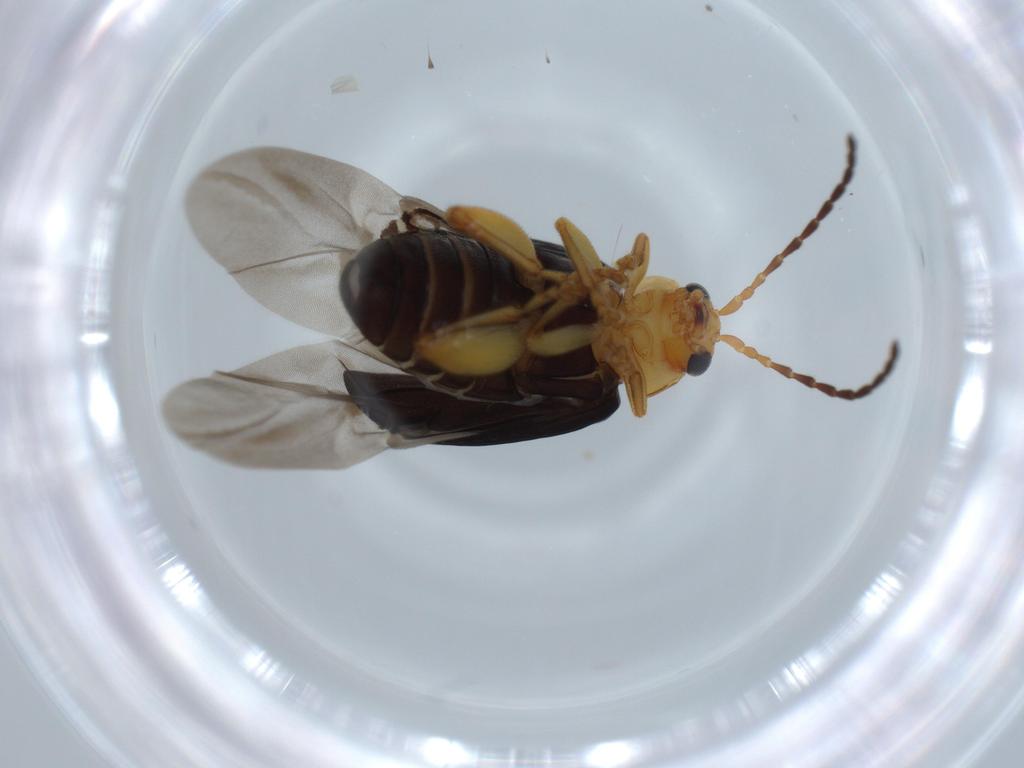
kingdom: Animalia
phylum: Arthropoda
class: Insecta
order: Coleoptera
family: Chrysomelidae
